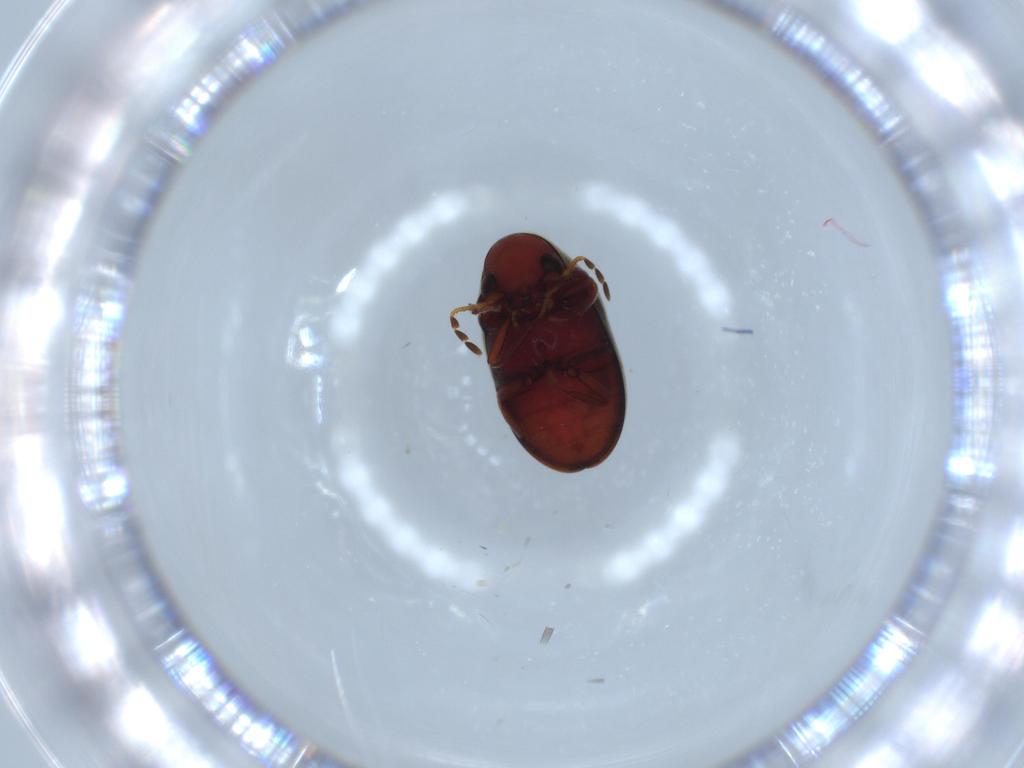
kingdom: Animalia
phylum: Arthropoda
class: Insecta
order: Coleoptera
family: Ptinidae
